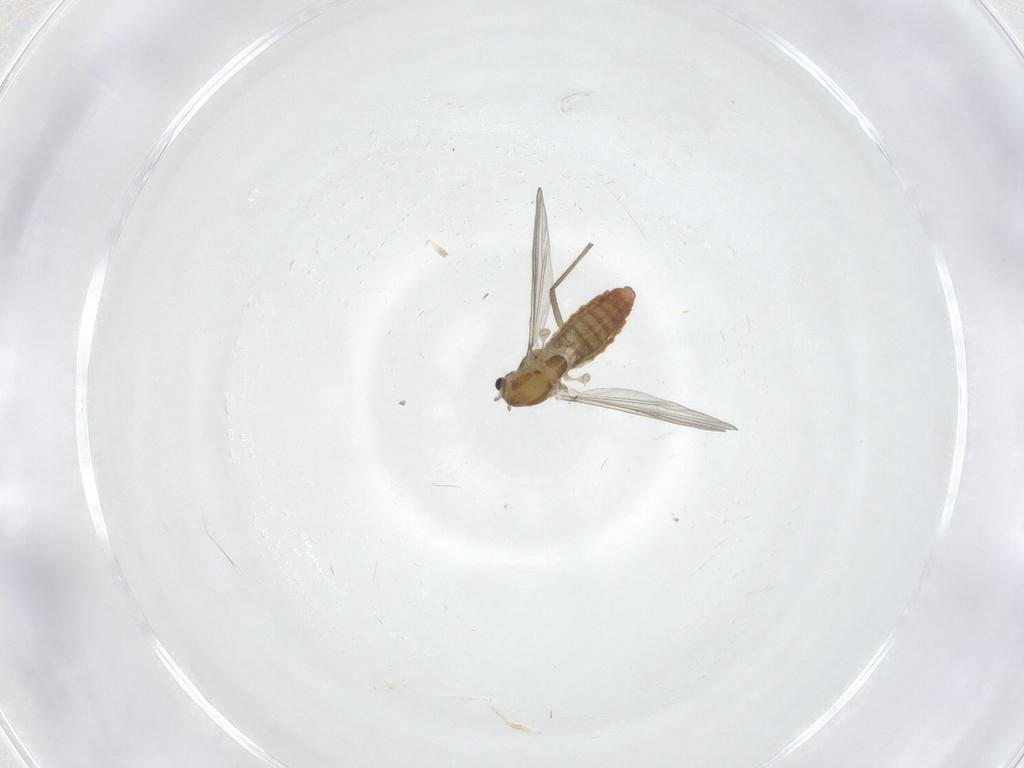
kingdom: Animalia
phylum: Arthropoda
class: Insecta
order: Diptera
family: Chironomidae
